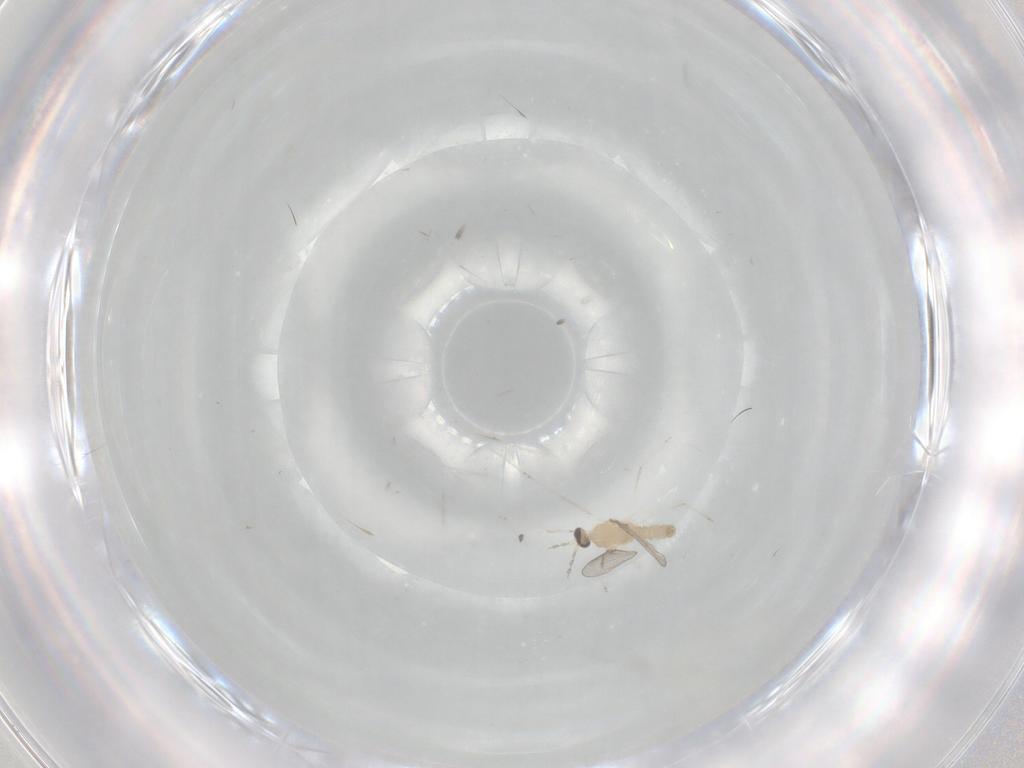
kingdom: Animalia
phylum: Arthropoda
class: Insecta
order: Diptera
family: Cecidomyiidae
